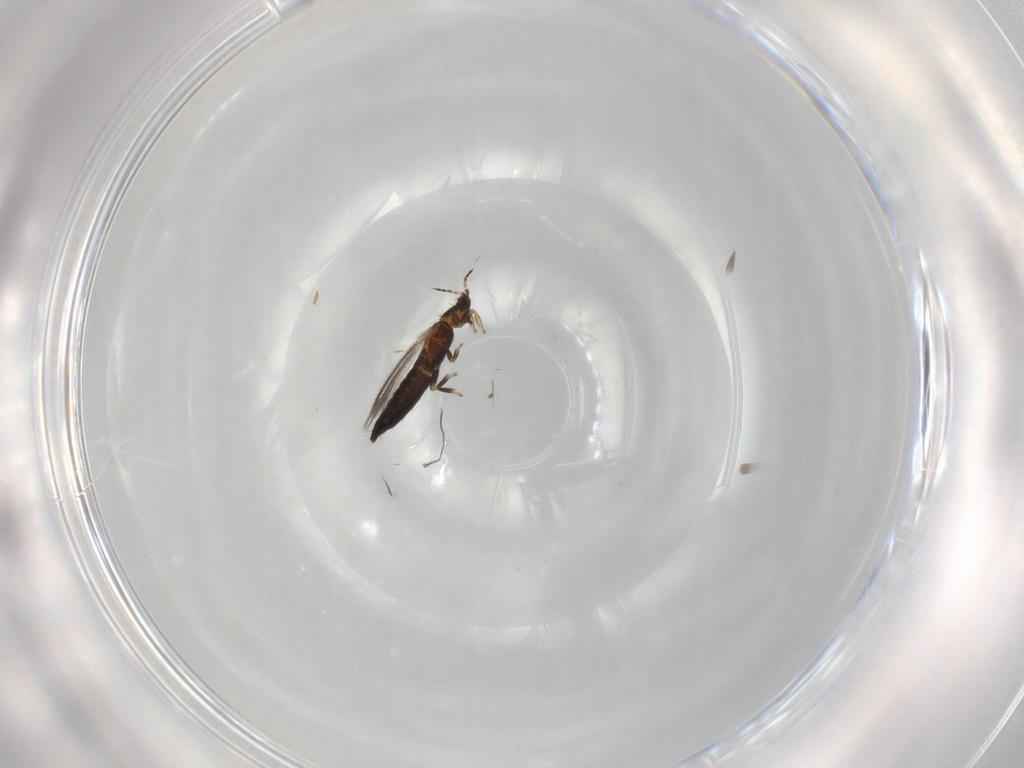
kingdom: Animalia
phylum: Arthropoda
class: Insecta
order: Thysanoptera
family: Thripidae
